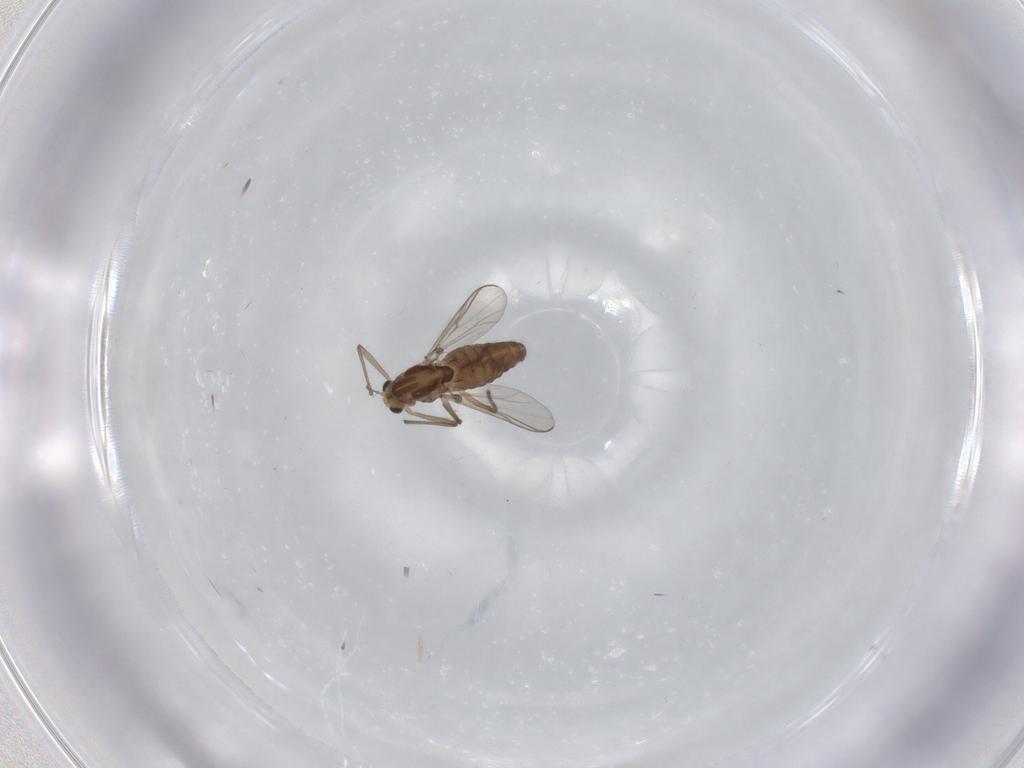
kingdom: Animalia
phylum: Arthropoda
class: Insecta
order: Diptera
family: Chironomidae
